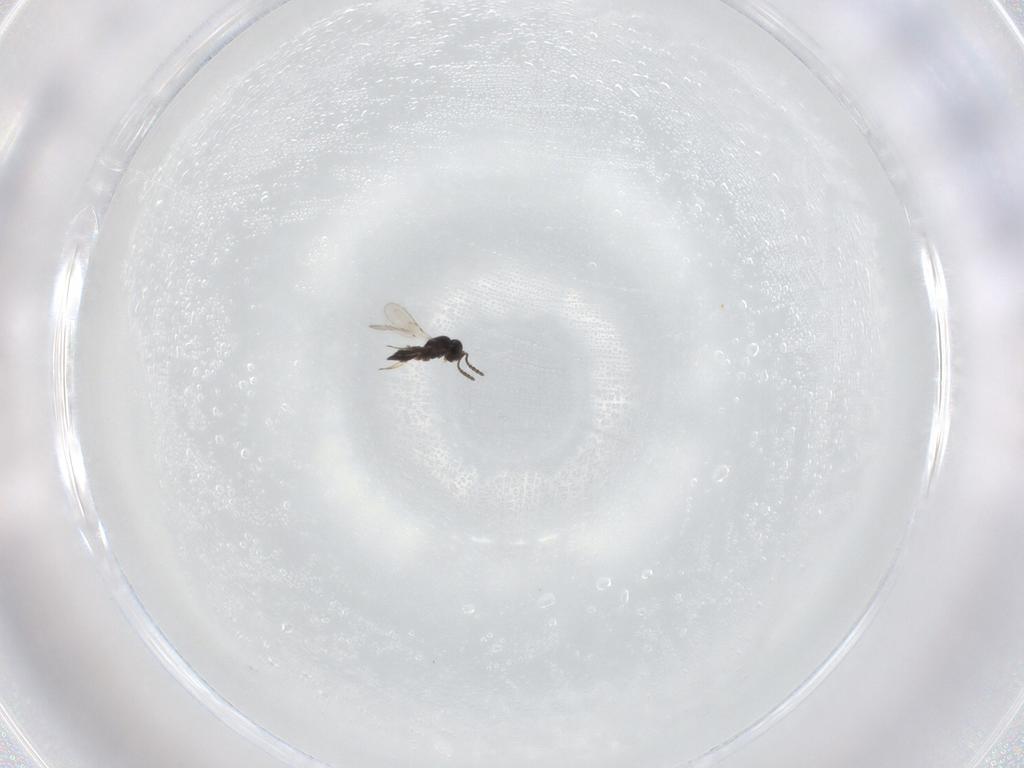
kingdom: Animalia
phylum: Arthropoda
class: Insecta
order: Hymenoptera
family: Scelionidae
